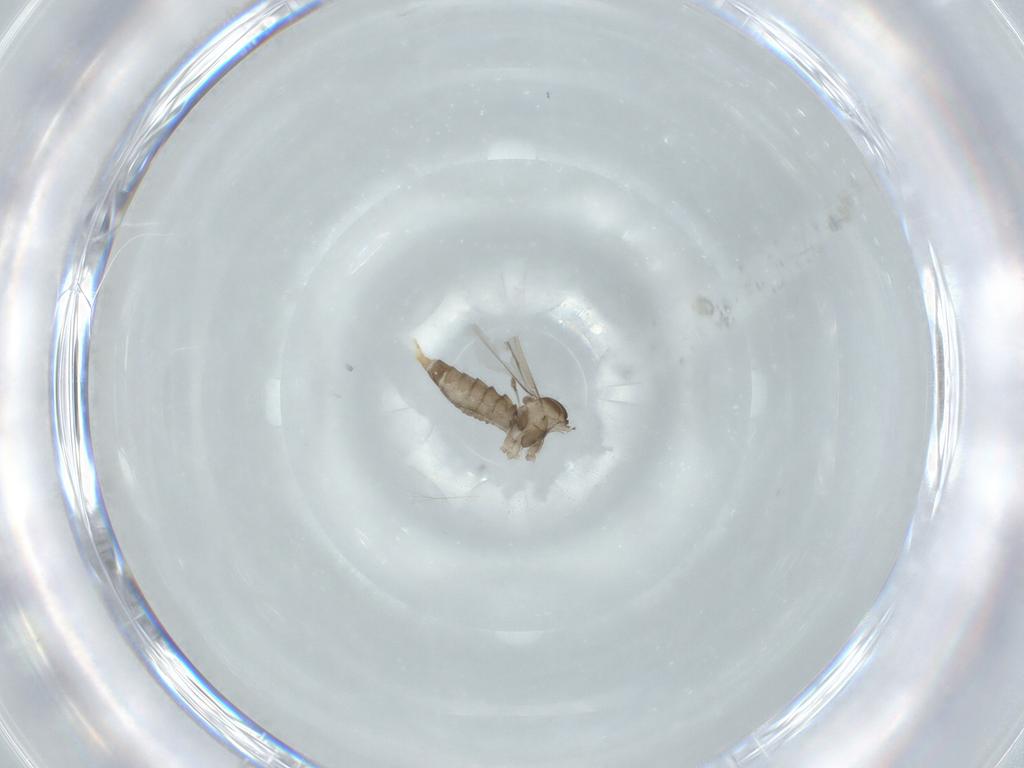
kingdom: Animalia
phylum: Arthropoda
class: Insecta
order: Diptera
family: Cecidomyiidae
